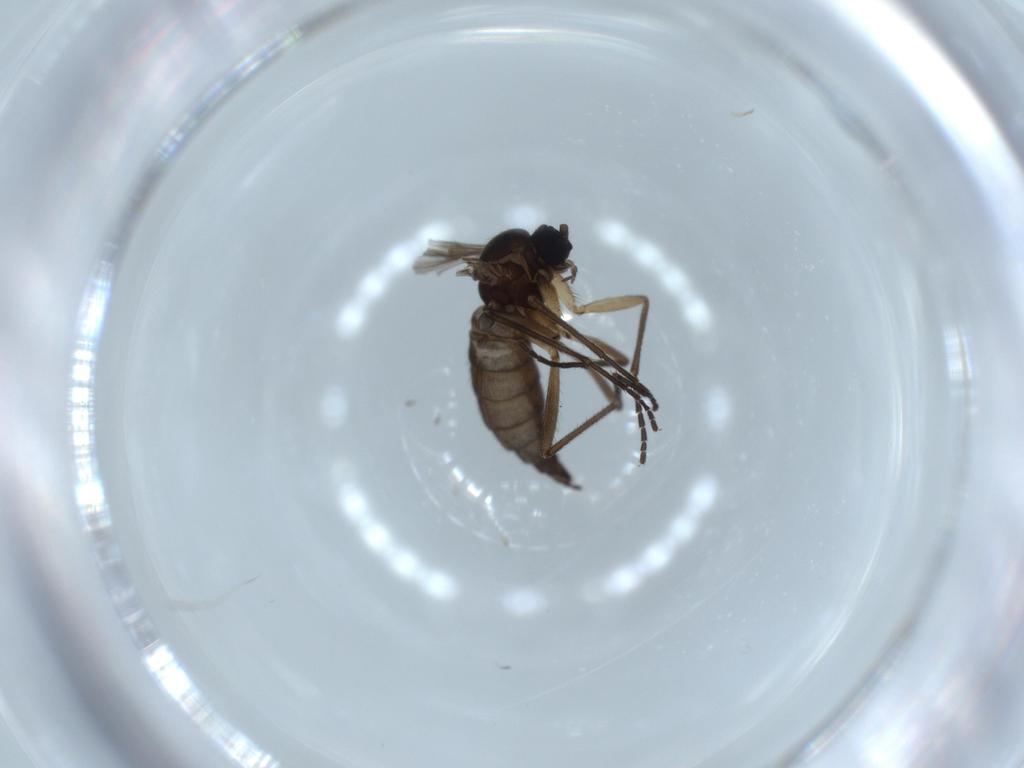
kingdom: Animalia
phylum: Arthropoda
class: Insecta
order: Diptera
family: Sciaridae
